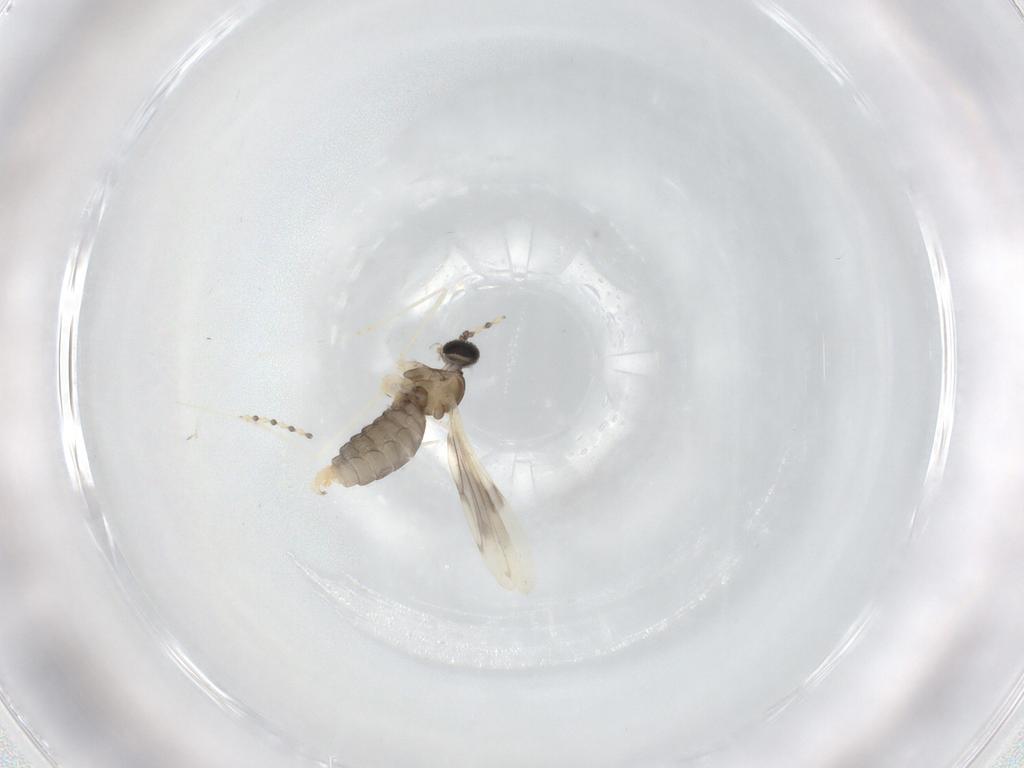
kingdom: Animalia
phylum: Arthropoda
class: Insecta
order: Diptera
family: Cecidomyiidae
